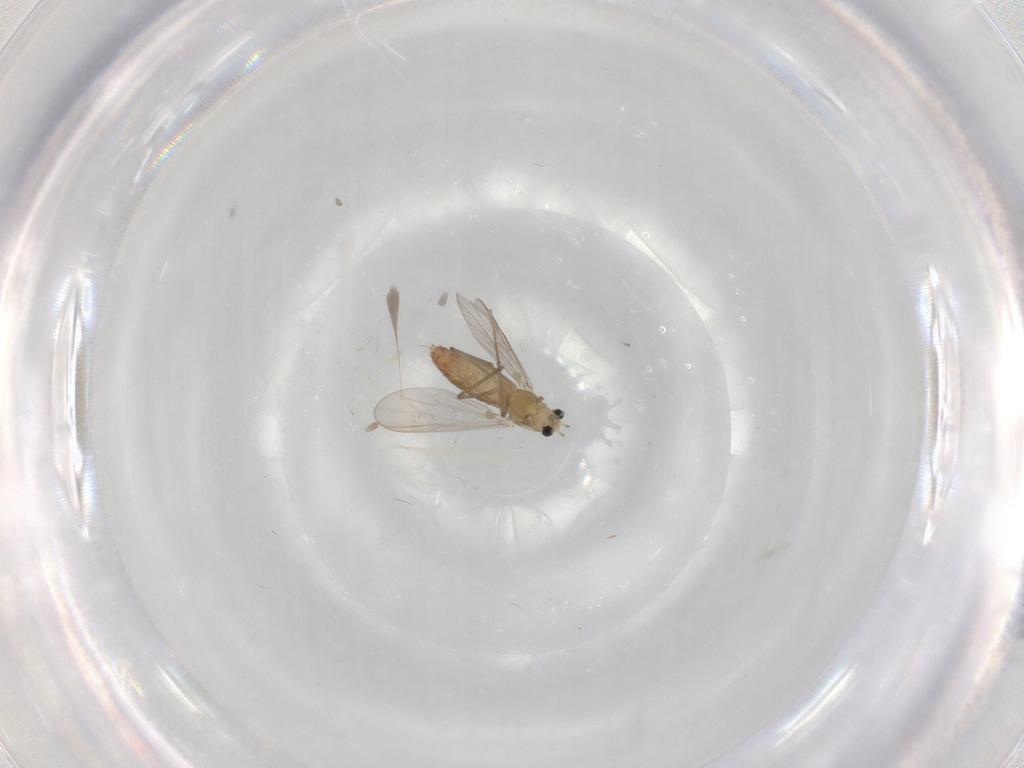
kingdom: Animalia
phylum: Arthropoda
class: Insecta
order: Diptera
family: Chironomidae
